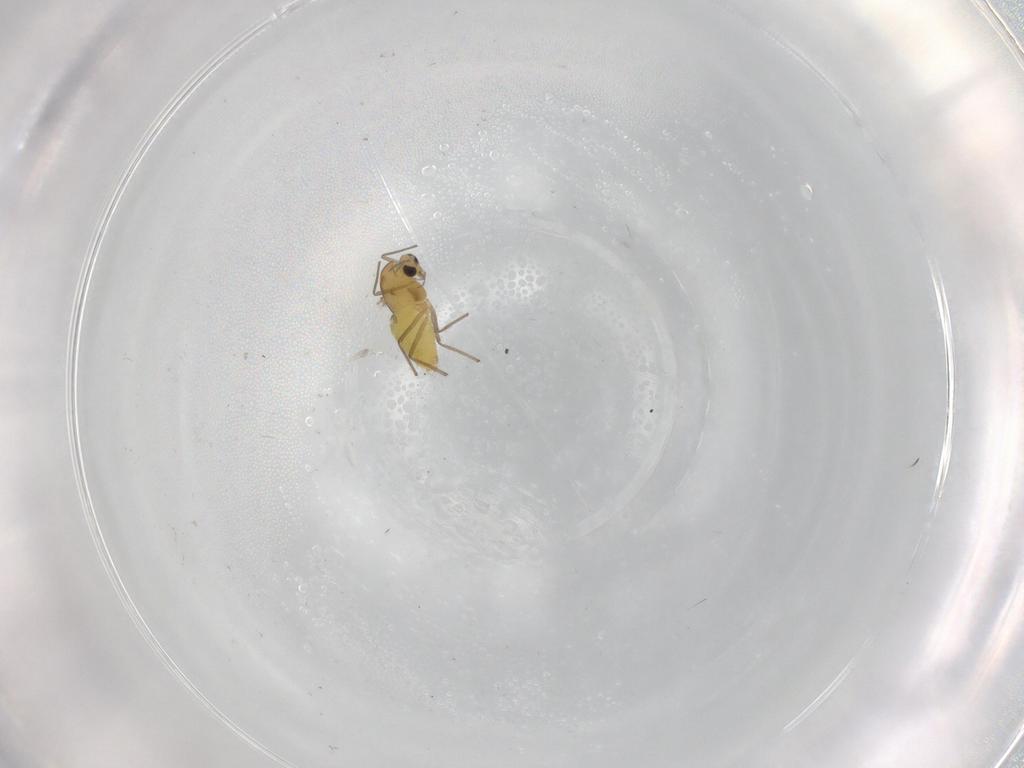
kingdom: Animalia
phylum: Arthropoda
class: Insecta
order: Diptera
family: Chironomidae
